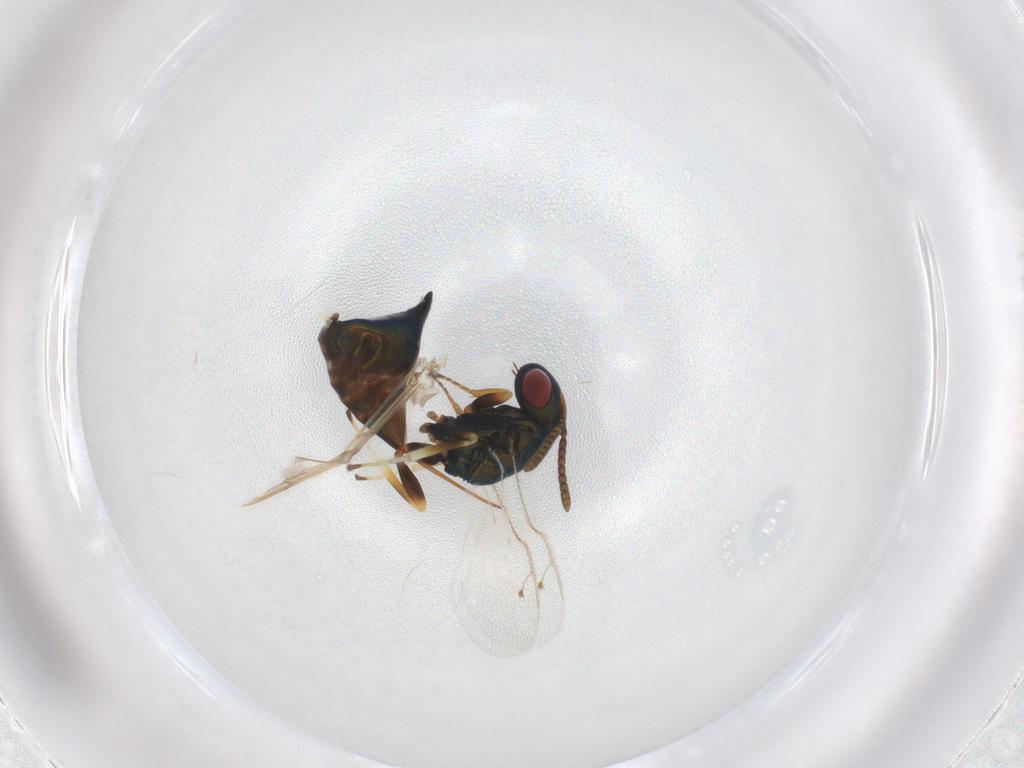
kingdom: Animalia
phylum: Arthropoda
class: Insecta
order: Hymenoptera
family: Pteromalidae
